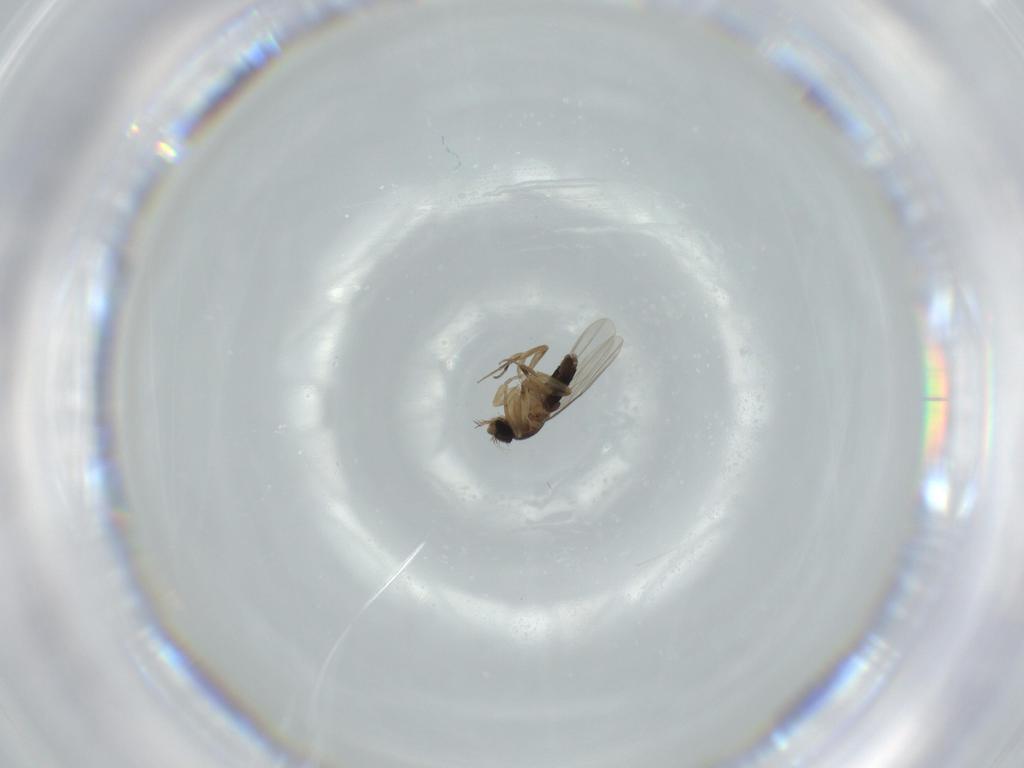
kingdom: Animalia
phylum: Arthropoda
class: Insecta
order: Diptera
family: Phoridae
